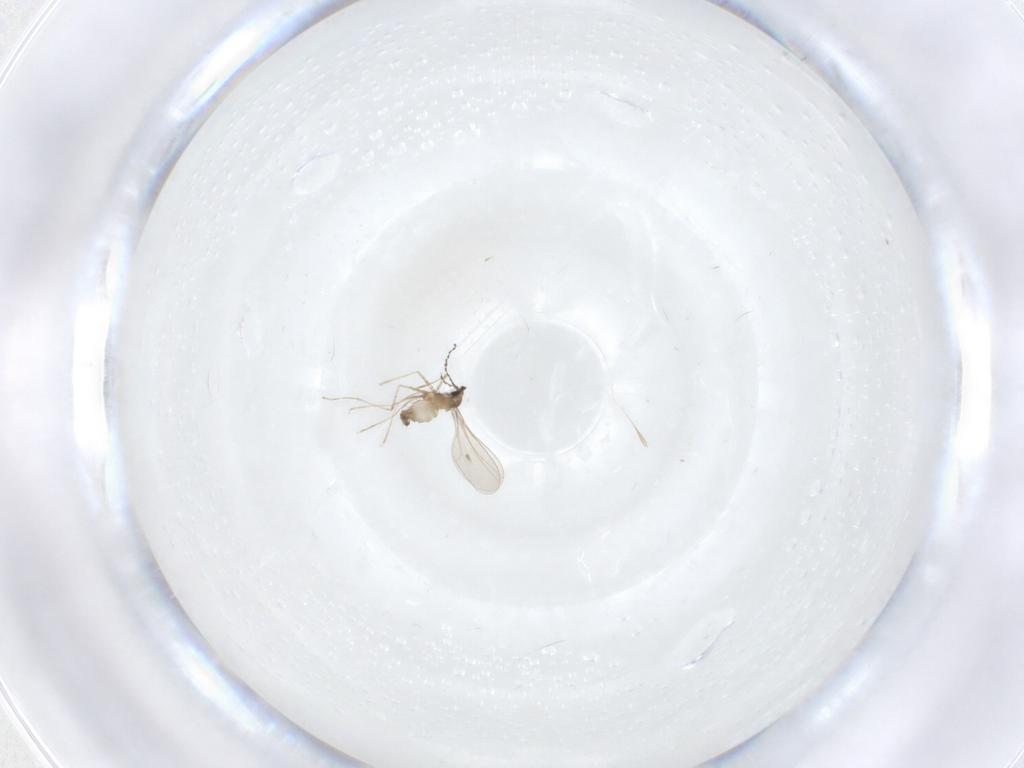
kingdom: Animalia
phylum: Arthropoda
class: Insecta
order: Diptera
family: Cecidomyiidae
